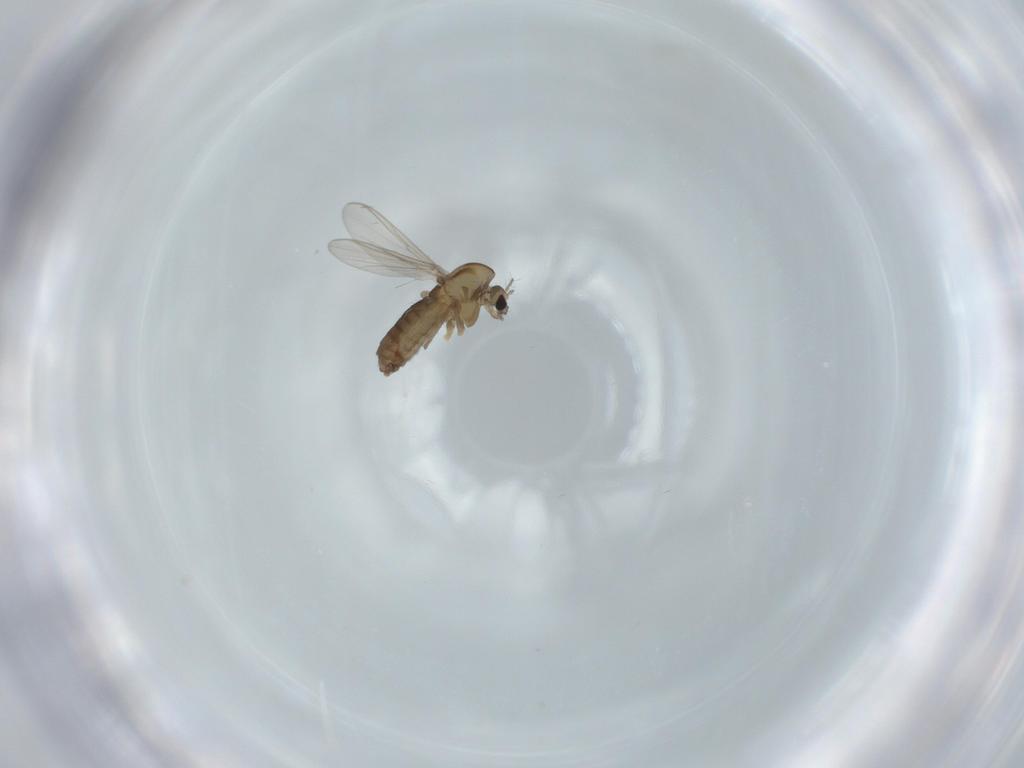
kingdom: Animalia
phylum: Arthropoda
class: Insecta
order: Diptera
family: Chironomidae
